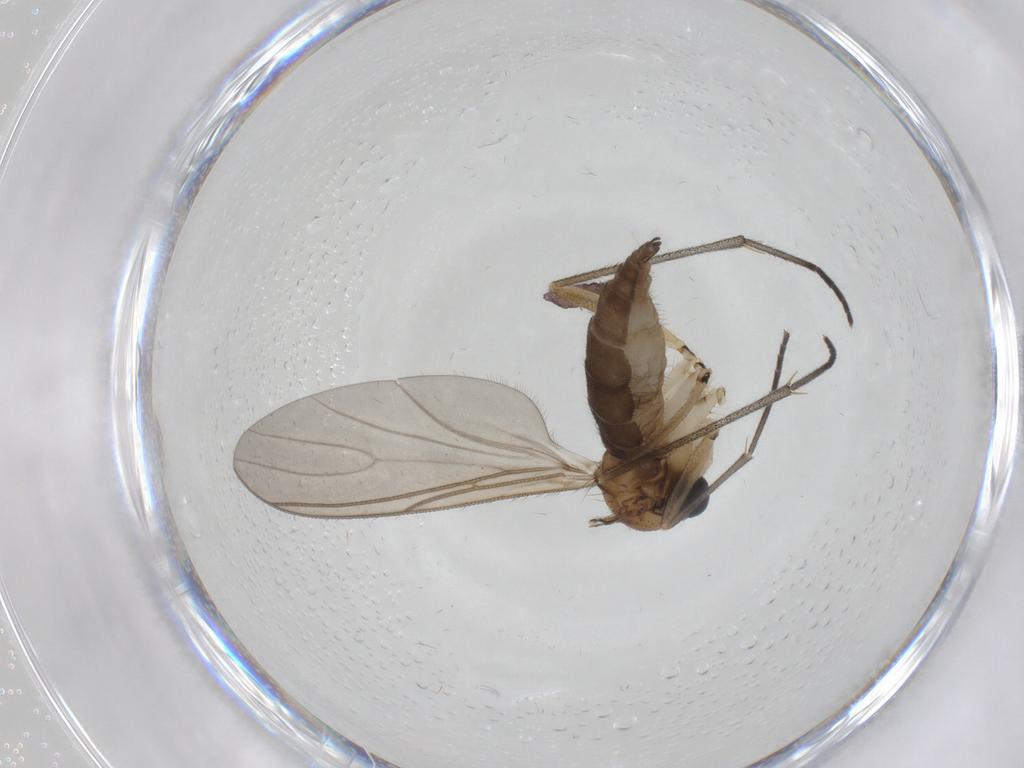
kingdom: Animalia
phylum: Arthropoda
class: Insecta
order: Diptera
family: Sciaridae
